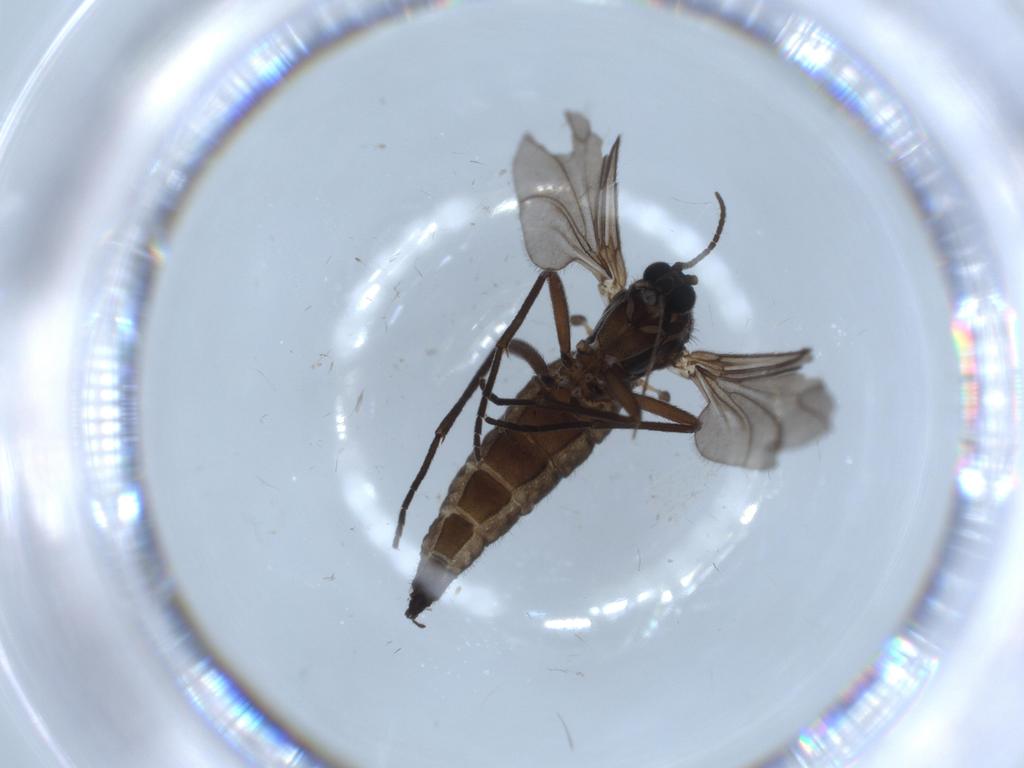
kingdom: Animalia
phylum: Arthropoda
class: Insecta
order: Diptera
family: Sciaridae
